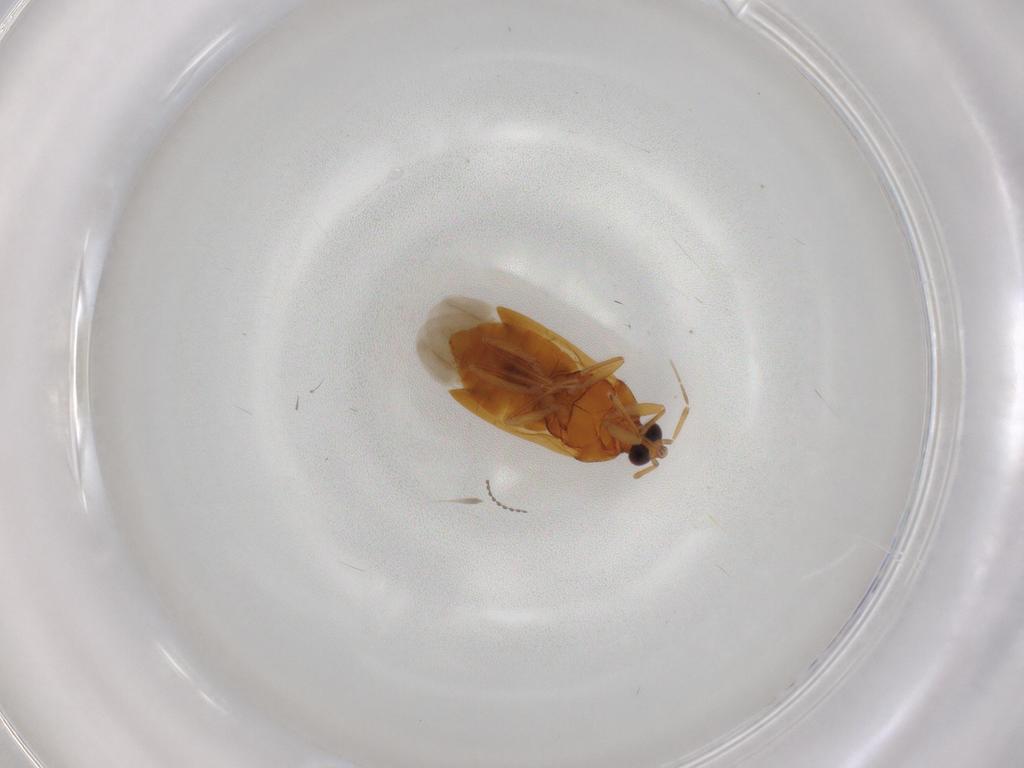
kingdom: Animalia
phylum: Arthropoda
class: Insecta
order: Hemiptera
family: Anthocoridae
